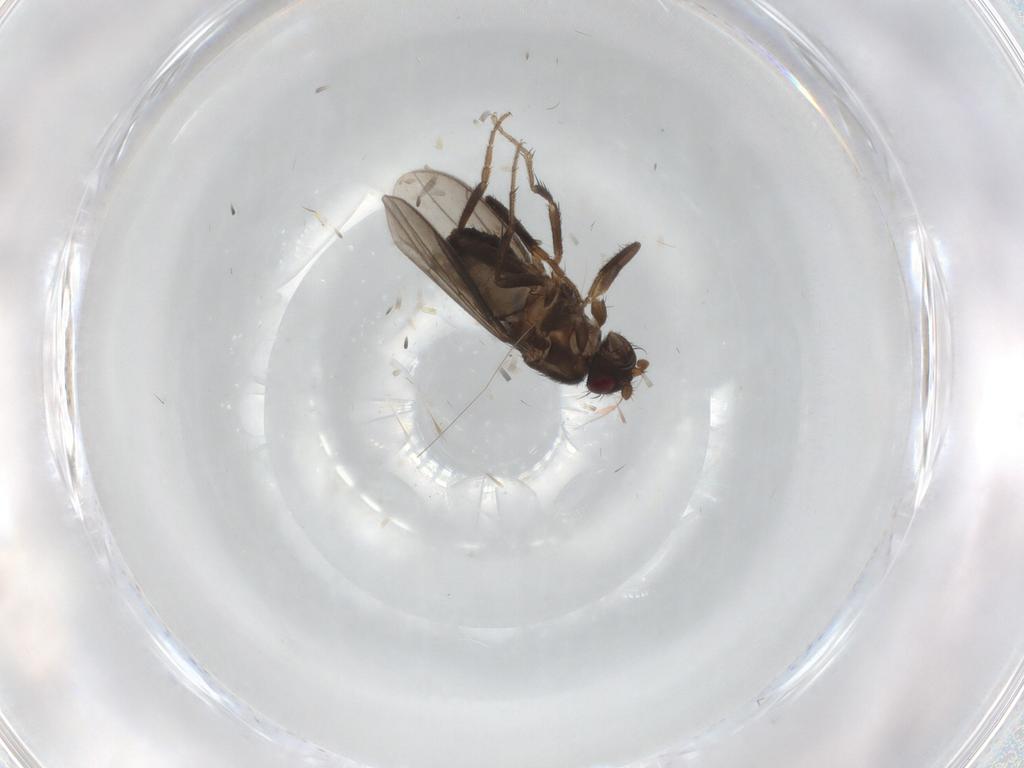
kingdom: Animalia
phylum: Arthropoda
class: Insecta
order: Diptera
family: Sphaeroceridae
